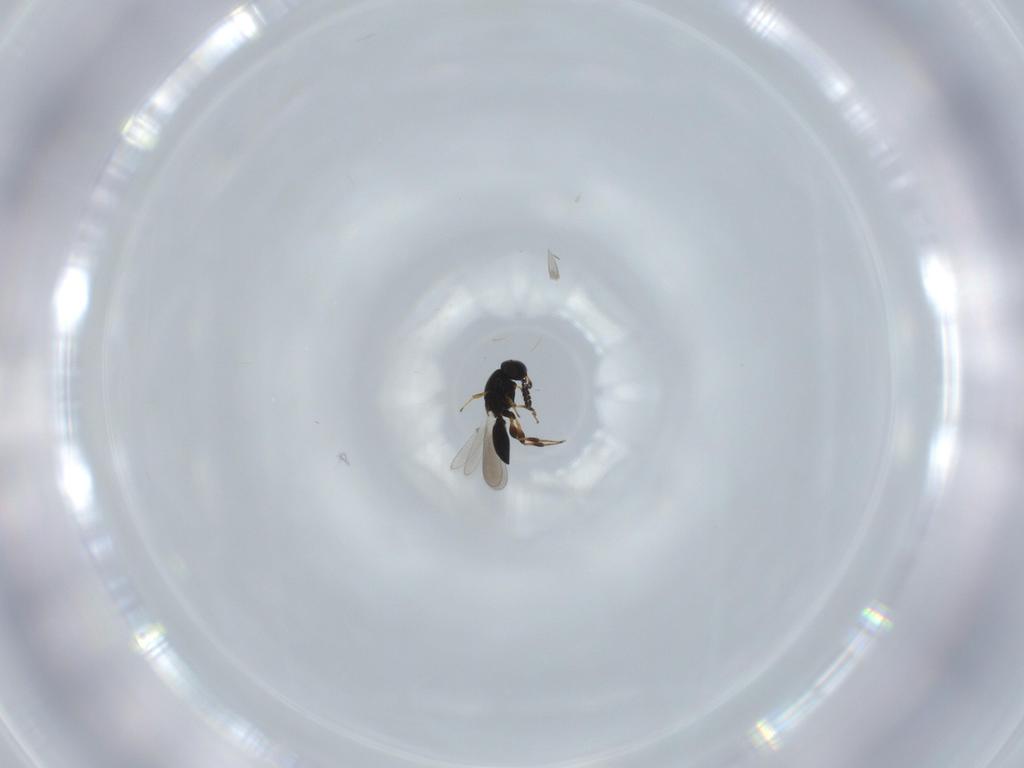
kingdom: Animalia
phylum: Arthropoda
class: Insecta
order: Hymenoptera
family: Platygastridae
